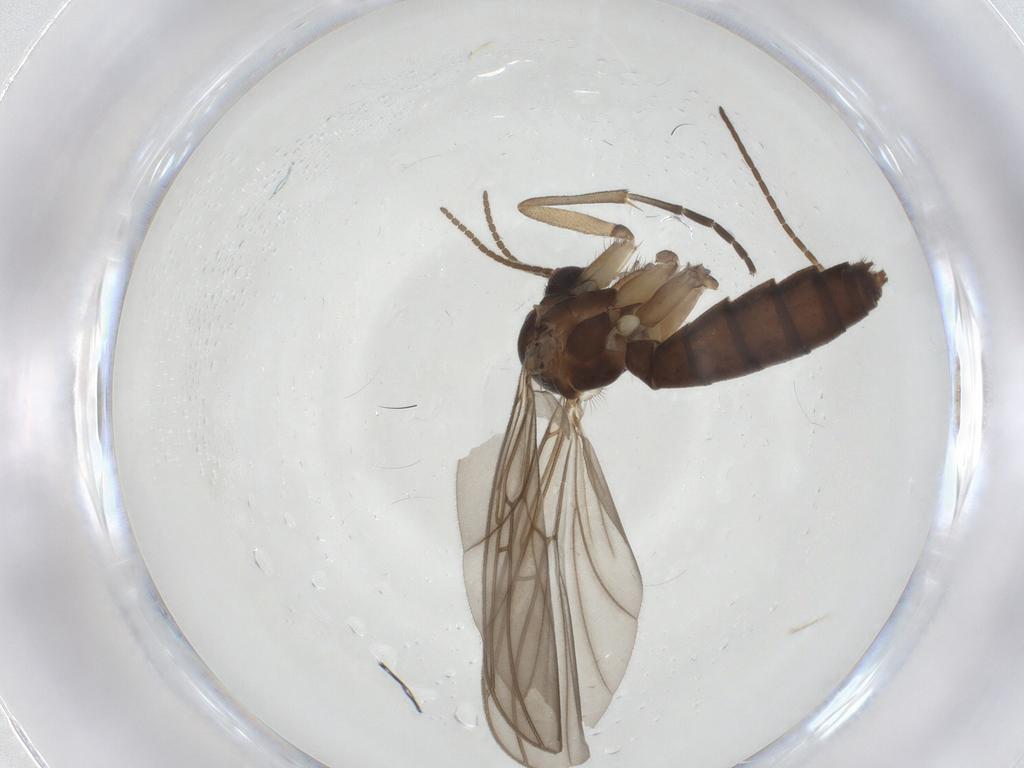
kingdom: Animalia
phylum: Arthropoda
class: Insecta
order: Diptera
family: Mycetophilidae
